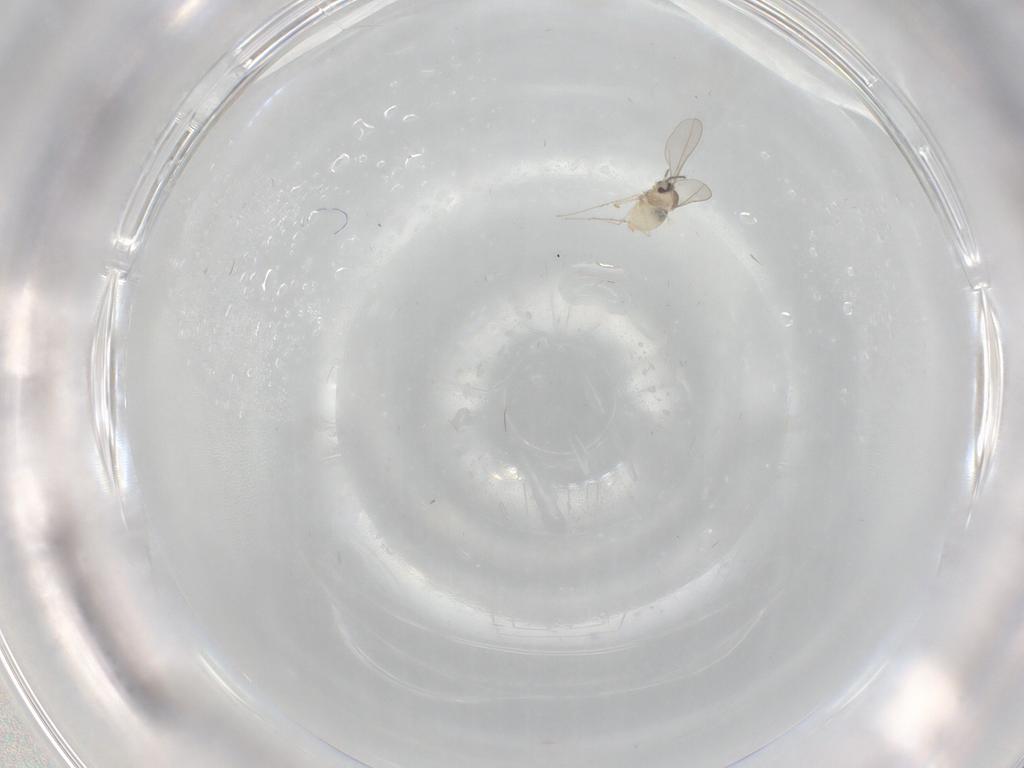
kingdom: Animalia
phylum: Arthropoda
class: Insecta
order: Diptera
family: Cecidomyiidae
